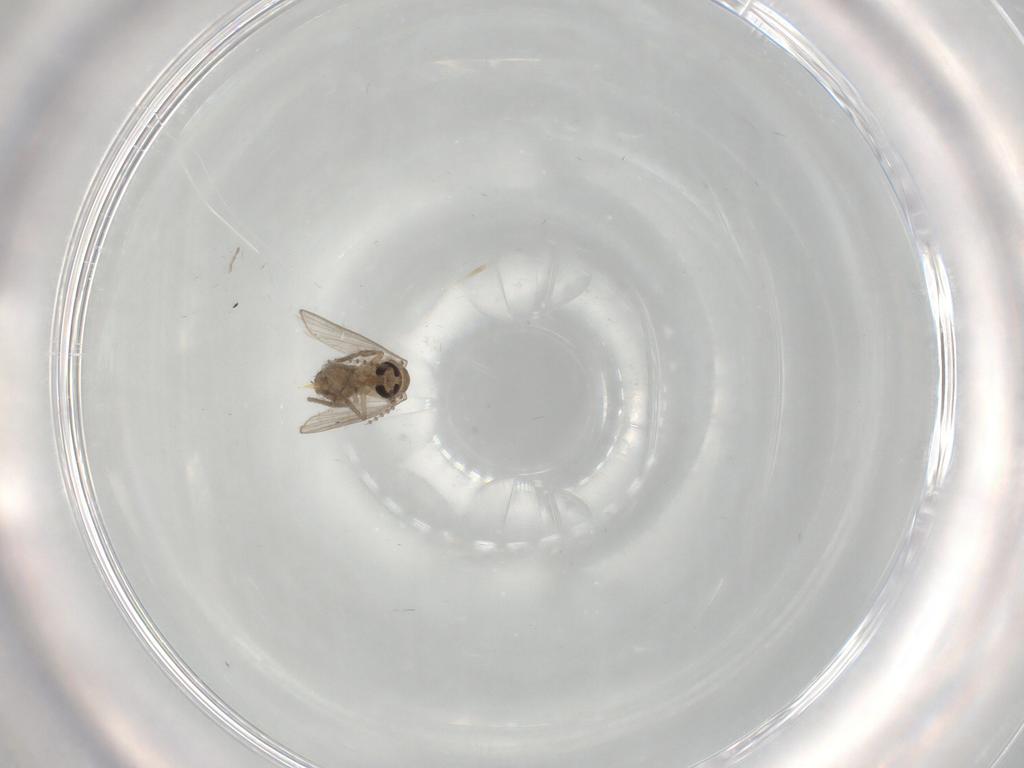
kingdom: Animalia
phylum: Arthropoda
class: Insecta
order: Diptera
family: Psychodidae
